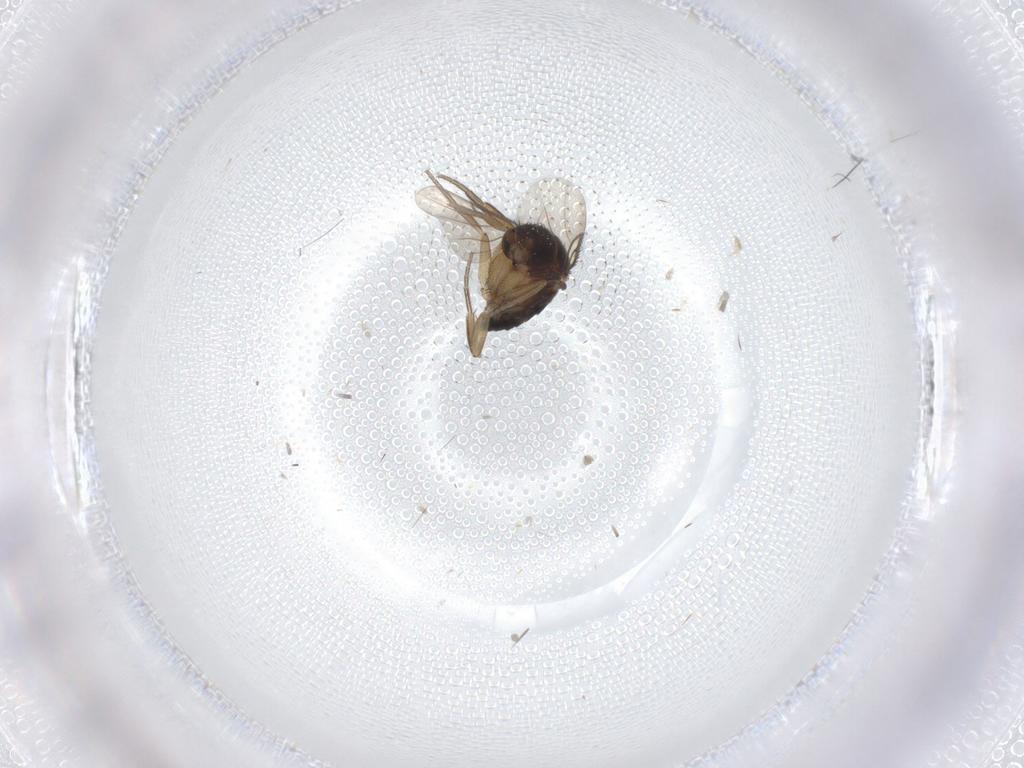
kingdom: Animalia
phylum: Arthropoda
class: Insecta
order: Diptera
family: Phoridae
